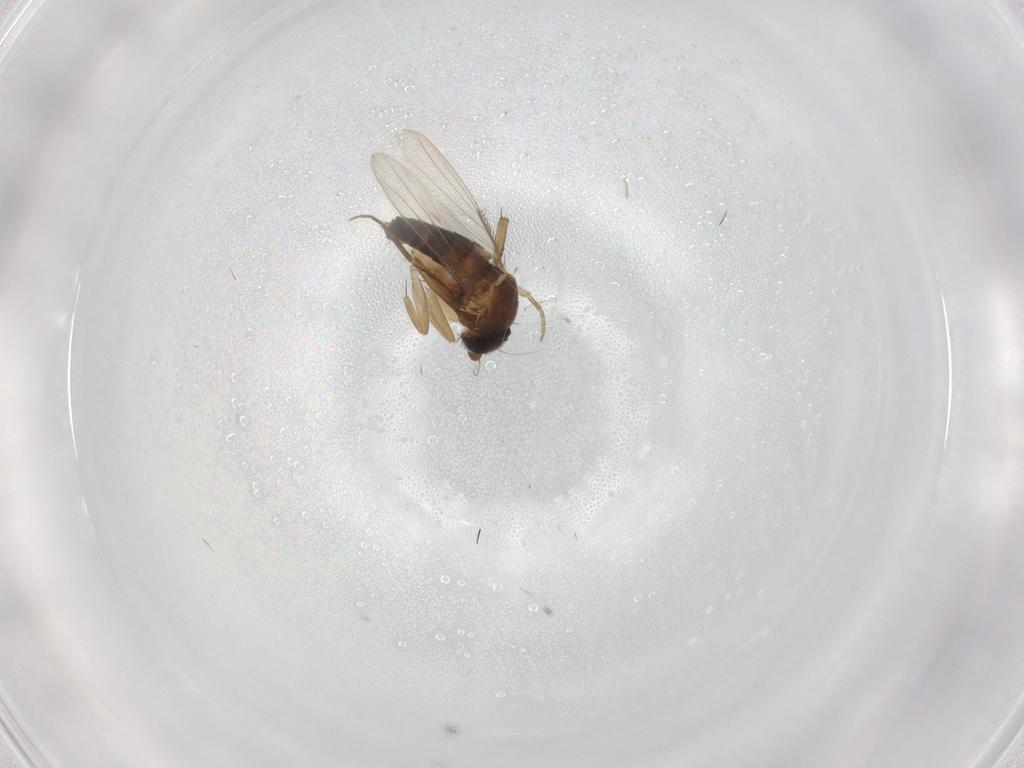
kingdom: Animalia
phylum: Arthropoda
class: Insecta
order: Diptera
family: Phoridae
